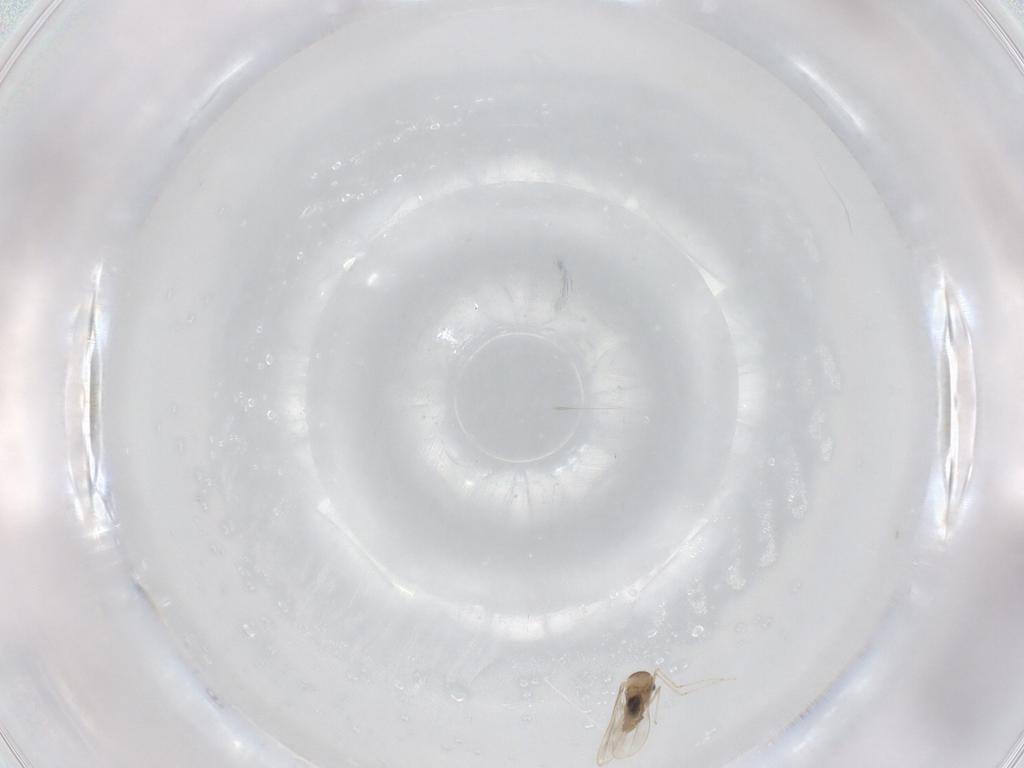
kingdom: Animalia
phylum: Arthropoda
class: Insecta
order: Diptera
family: Cecidomyiidae
